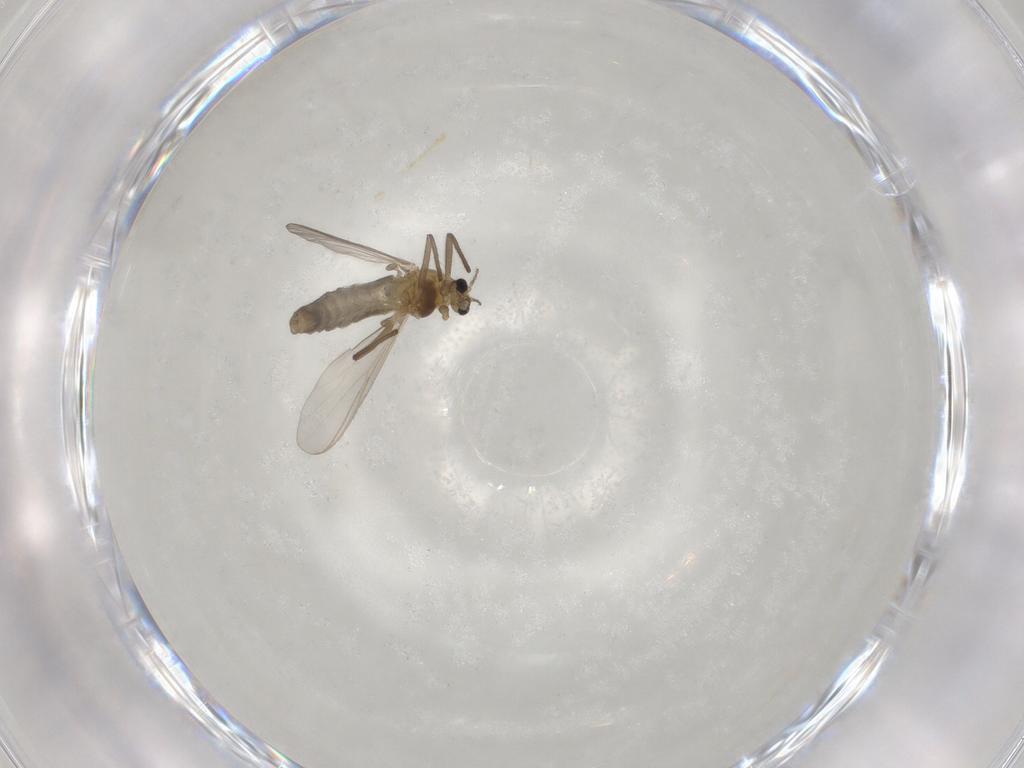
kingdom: Animalia
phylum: Arthropoda
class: Insecta
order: Diptera
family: Chironomidae
